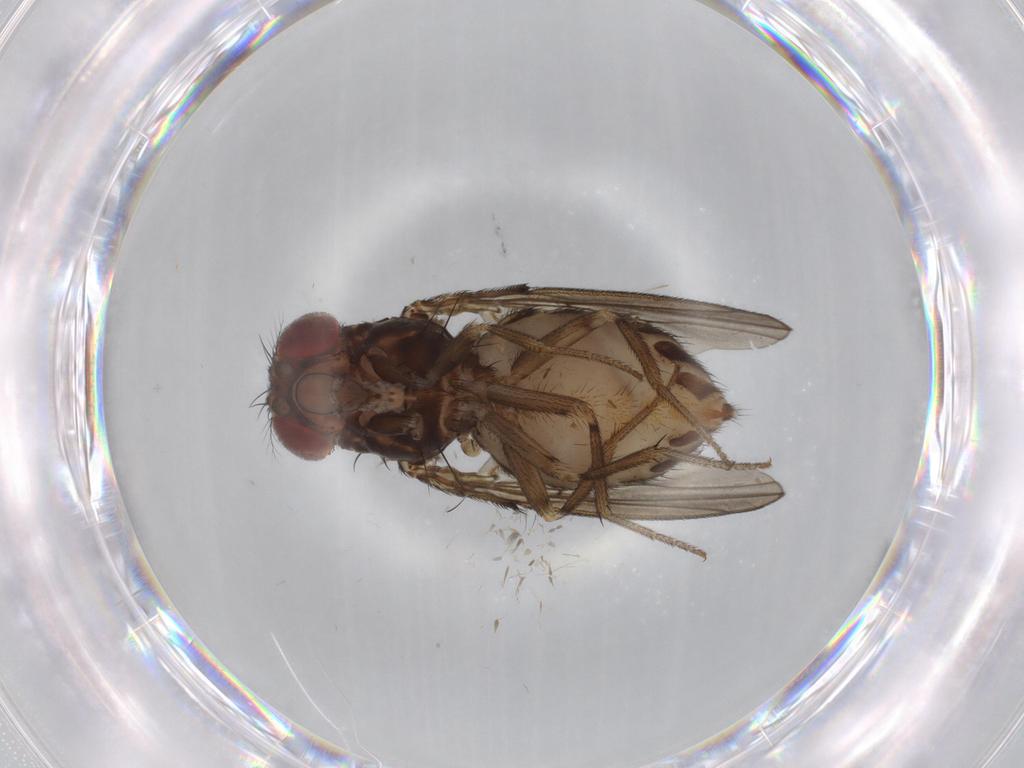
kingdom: Animalia
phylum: Arthropoda
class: Insecta
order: Diptera
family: Drosophilidae
